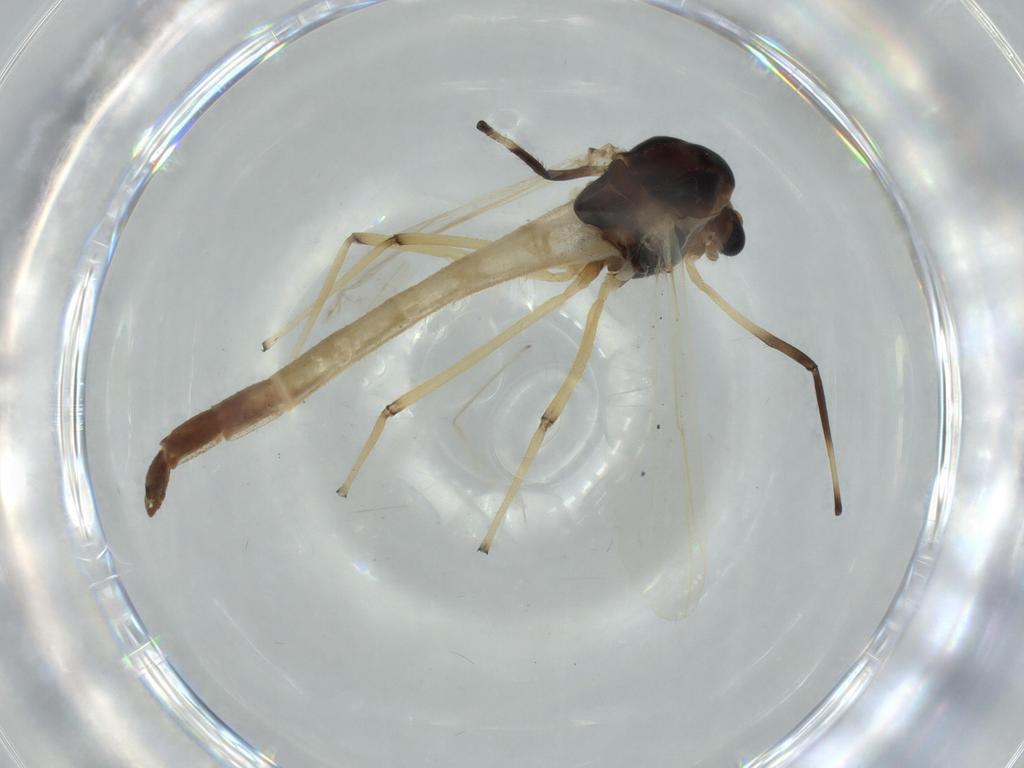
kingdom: Animalia
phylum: Arthropoda
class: Insecta
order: Diptera
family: Chironomidae
